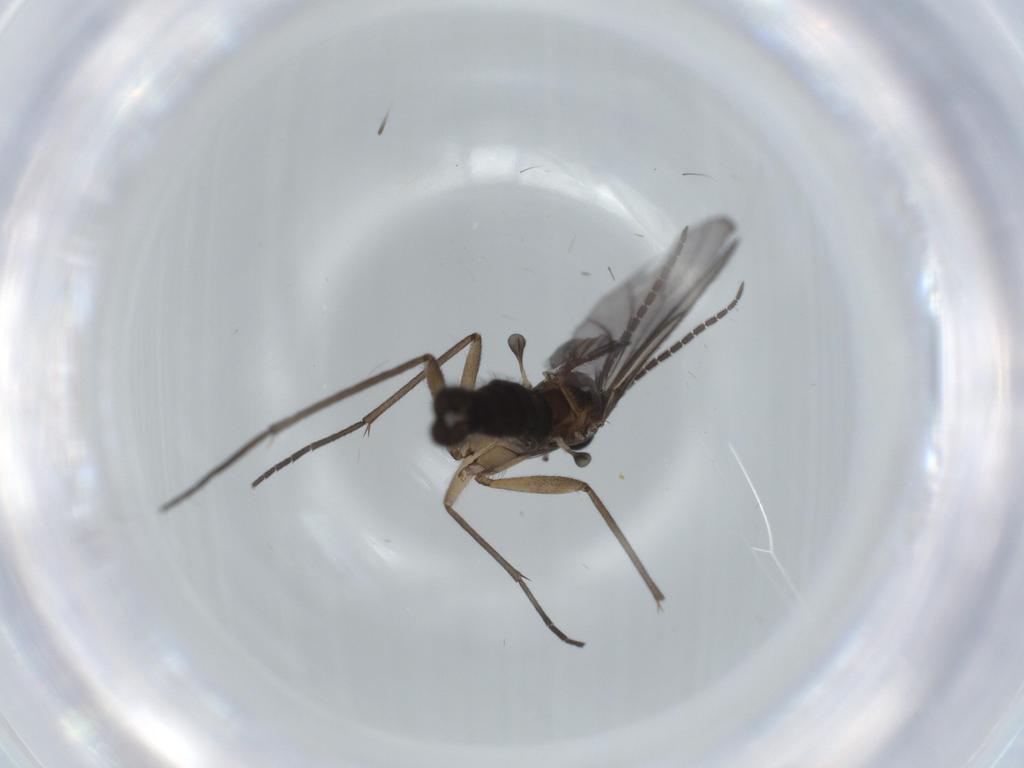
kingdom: Animalia
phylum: Arthropoda
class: Insecta
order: Diptera
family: Sciaridae
